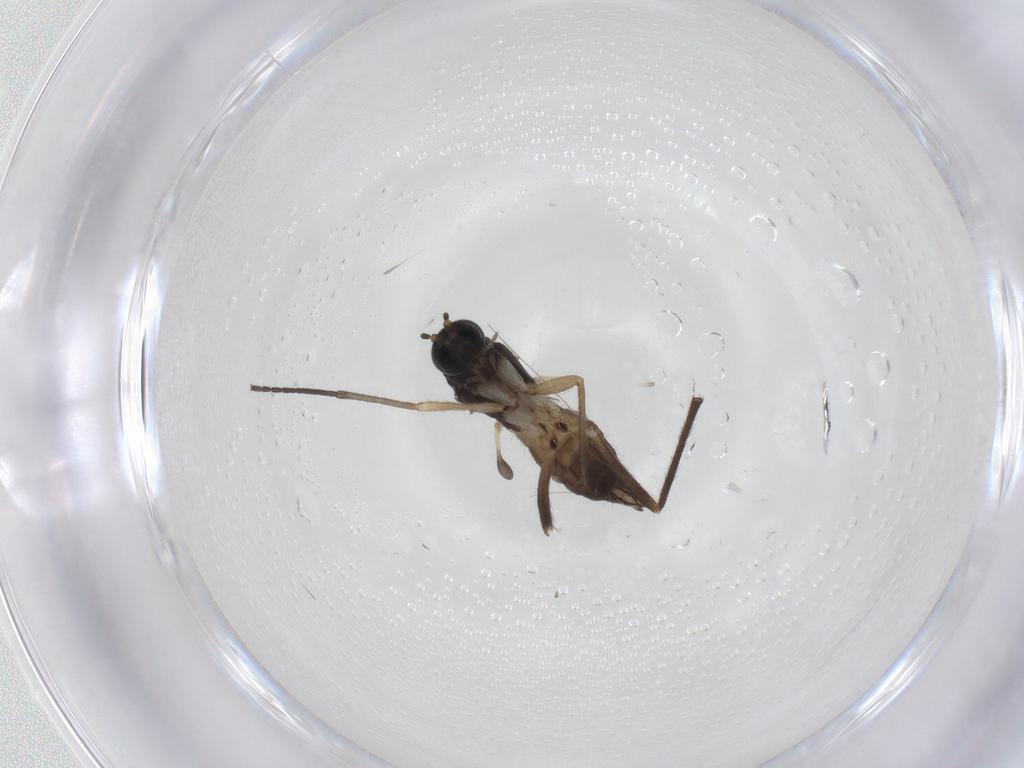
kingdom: Animalia
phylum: Arthropoda
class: Insecta
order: Diptera
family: Sciaridae
